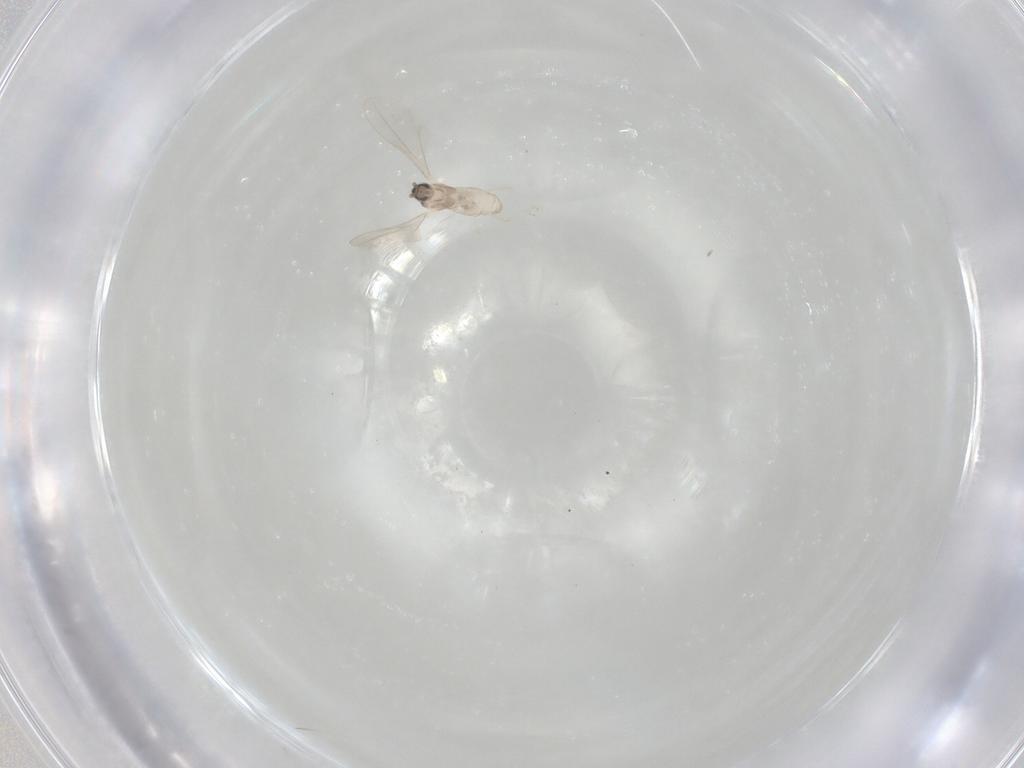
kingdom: Animalia
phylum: Arthropoda
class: Insecta
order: Diptera
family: Cecidomyiidae
